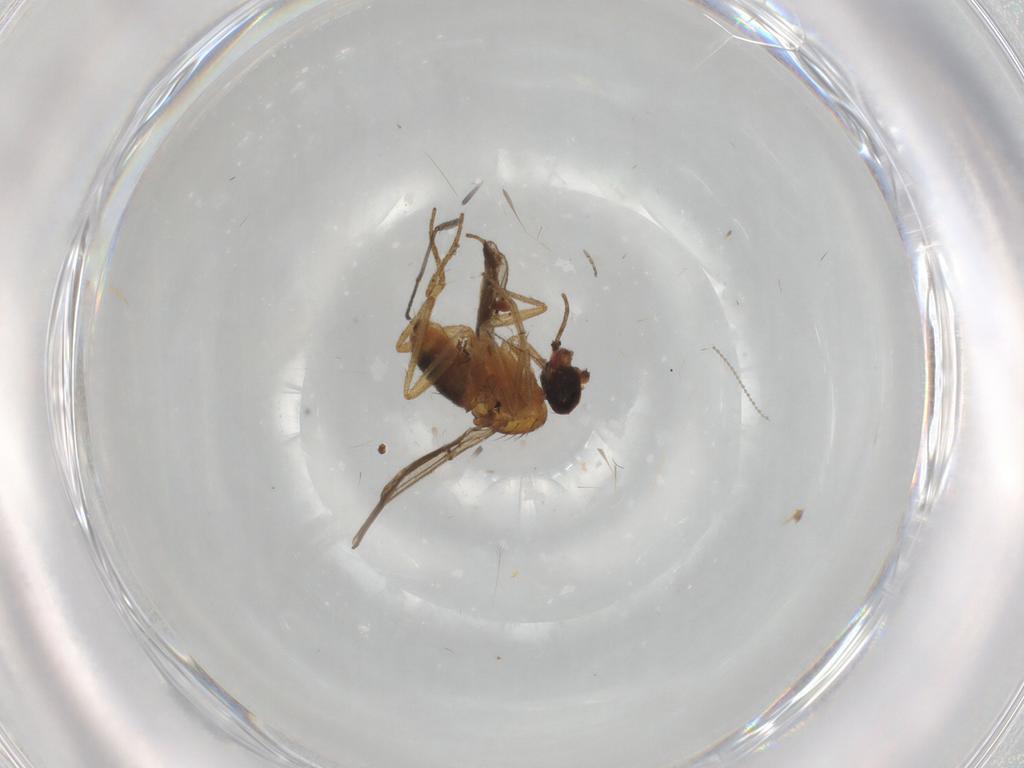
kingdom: Animalia
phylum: Arthropoda
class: Insecta
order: Diptera
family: Sciaridae
